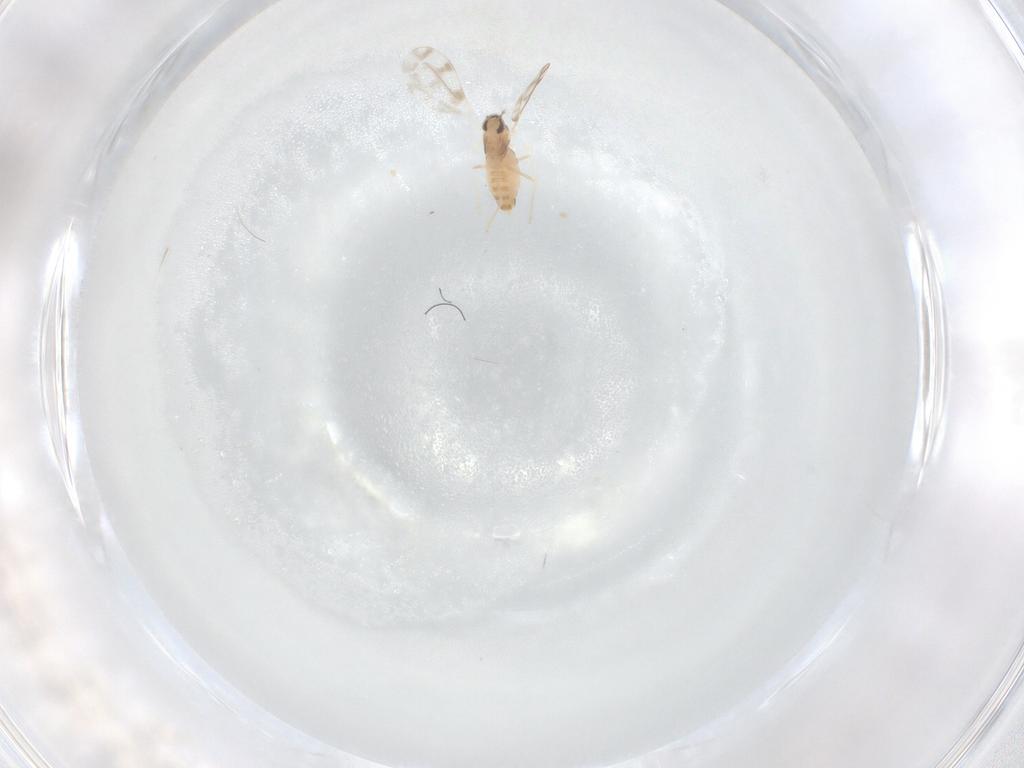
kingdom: Animalia
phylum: Arthropoda
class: Insecta
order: Diptera
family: Cecidomyiidae
